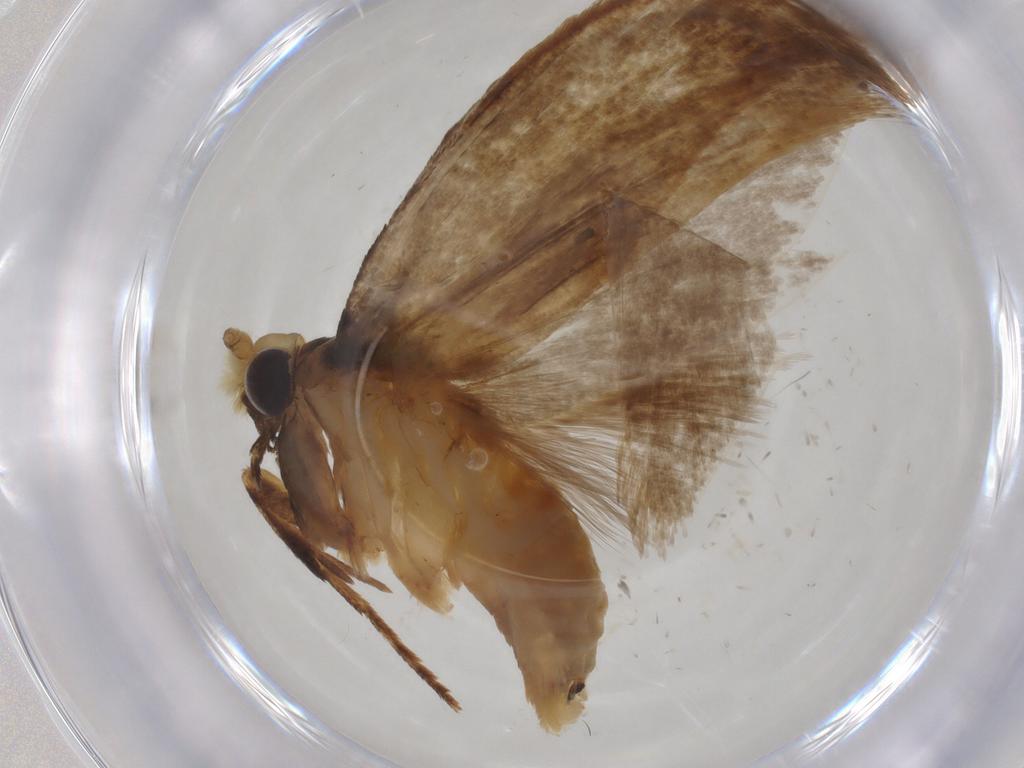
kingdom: Animalia
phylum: Arthropoda
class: Insecta
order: Lepidoptera
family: Erebidae
